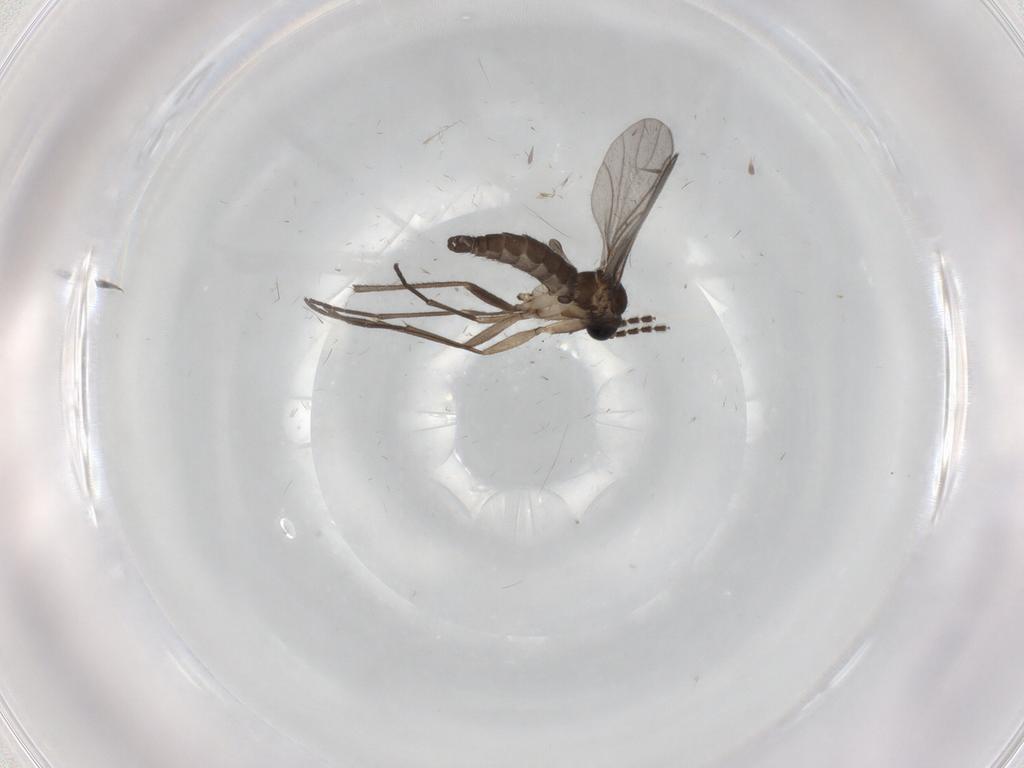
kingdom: Animalia
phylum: Arthropoda
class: Insecta
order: Diptera
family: Sciaridae
